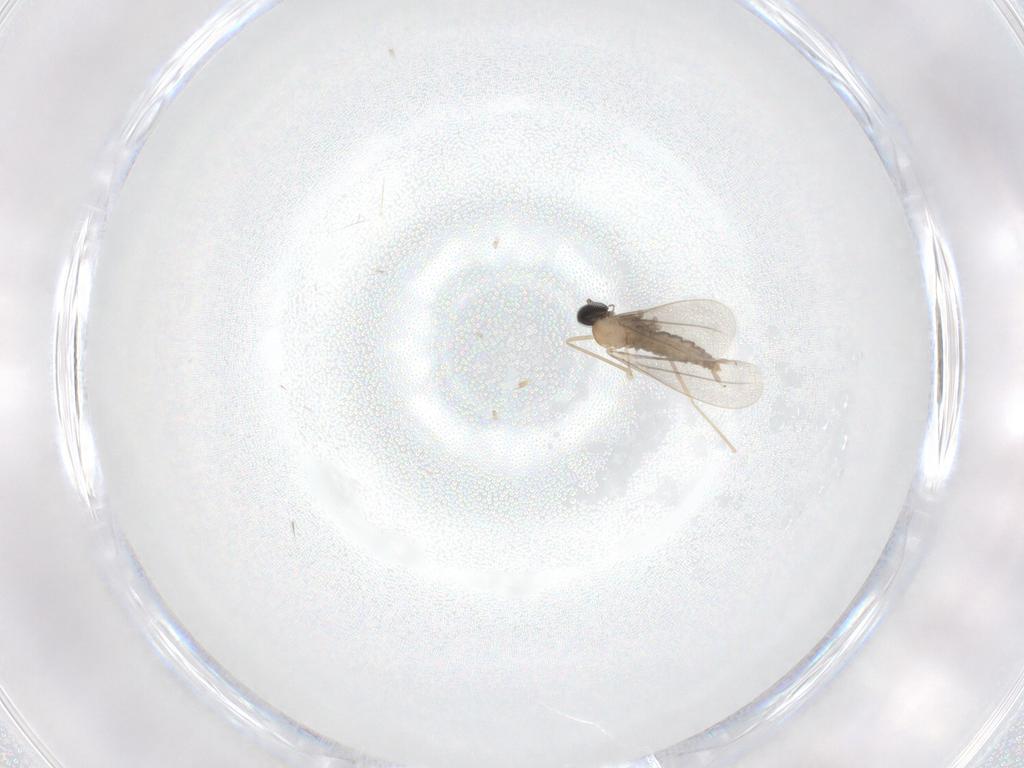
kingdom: Animalia
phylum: Arthropoda
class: Insecta
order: Diptera
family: Cecidomyiidae
